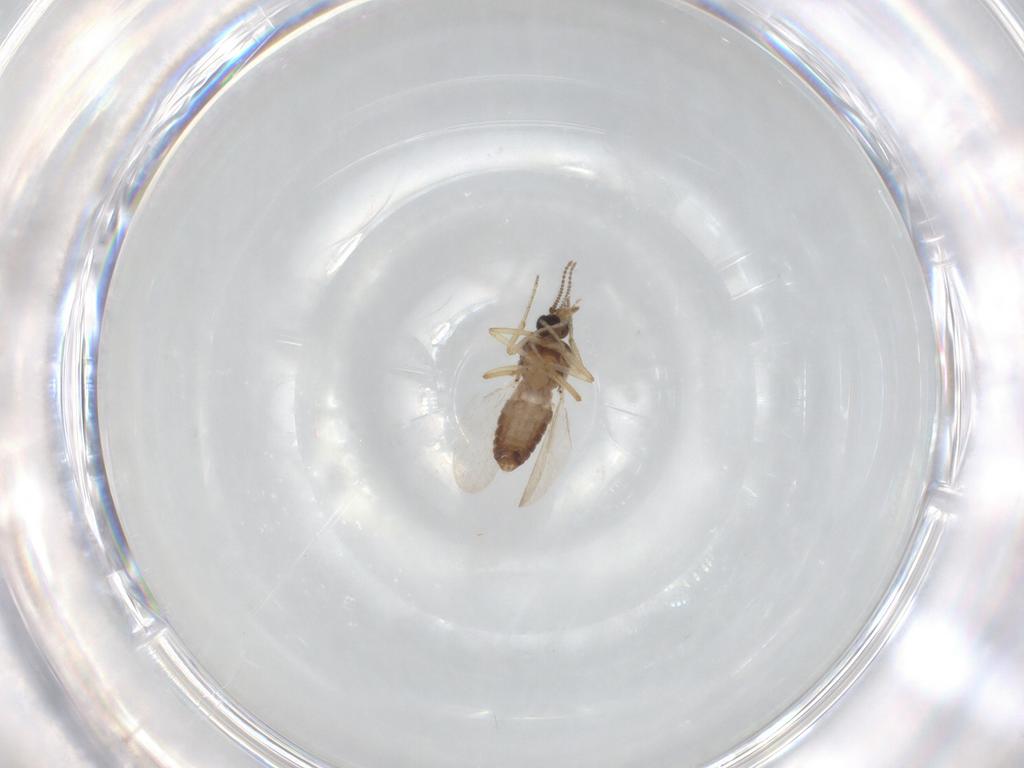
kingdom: Animalia
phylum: Arthropoda
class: Insecta
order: Diptera
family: Ceratopogonidae
